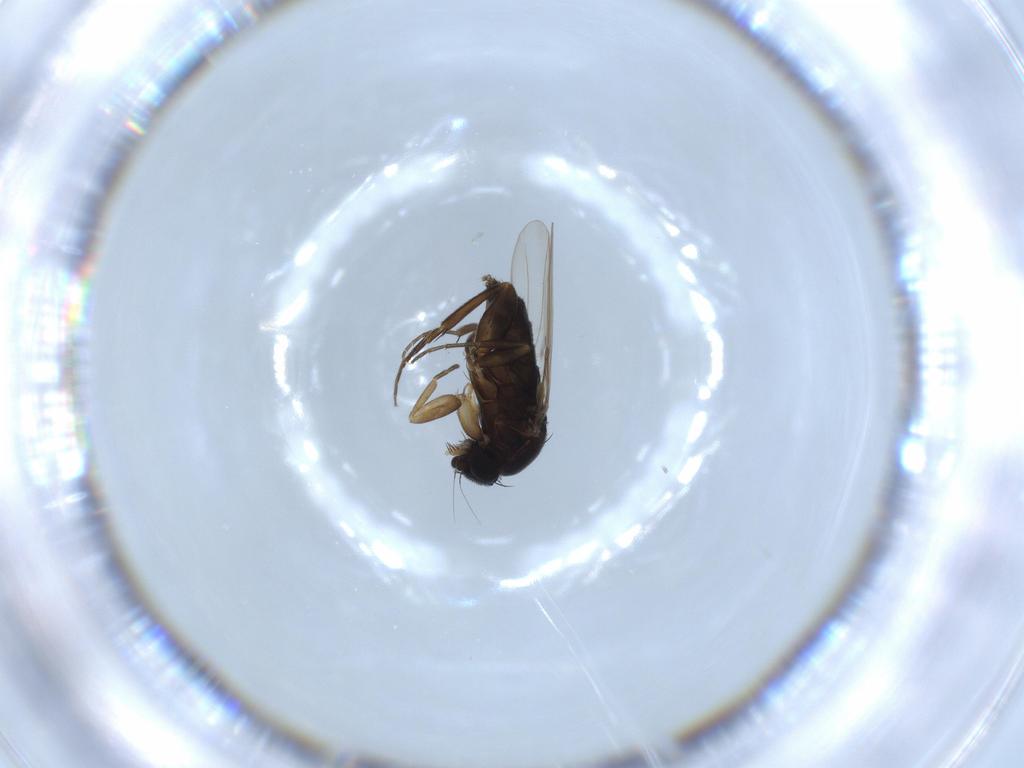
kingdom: Animalia
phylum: Arthropoda
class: Insecta
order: Diptera
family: Phoridae
